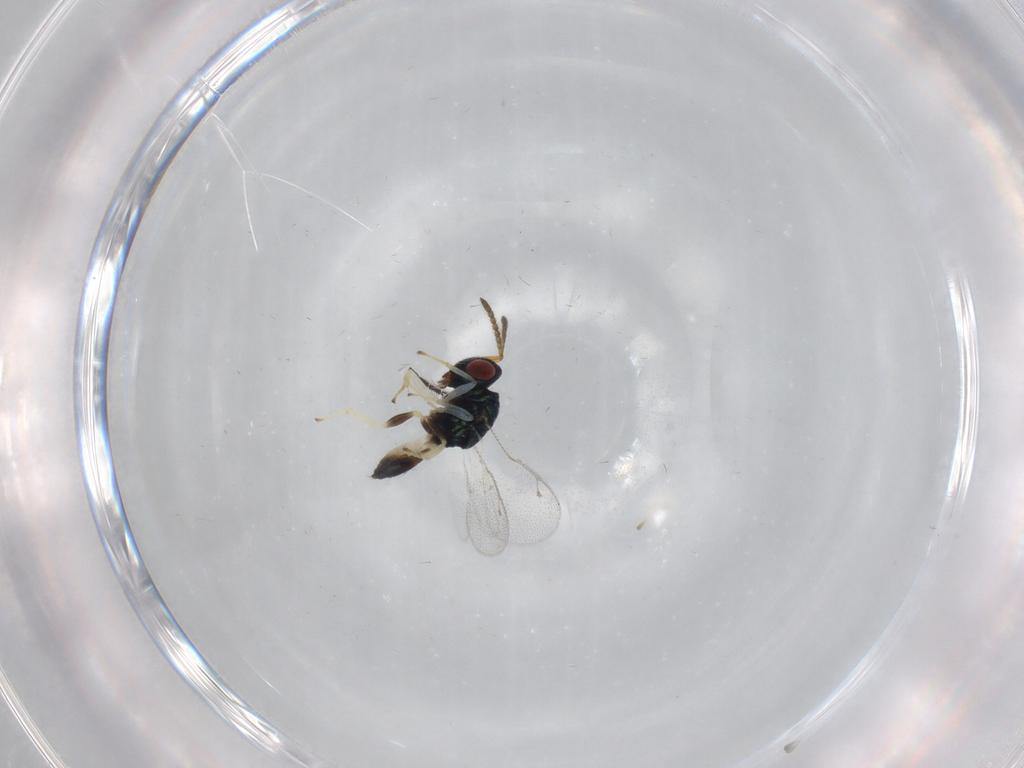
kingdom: Animalia
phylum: Arthropoda
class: Insecta
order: Hymenoptera
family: Pteromalidae
